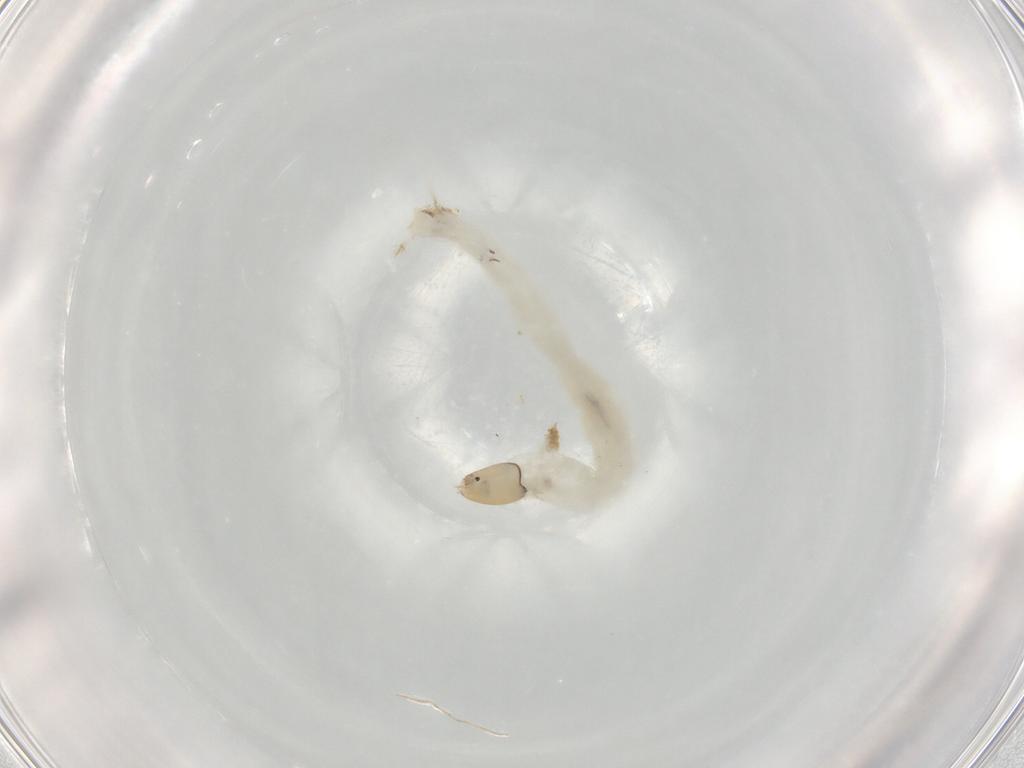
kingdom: Animalia
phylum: Arthropoda
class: Insecta
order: Diptera
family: Chironomidae
